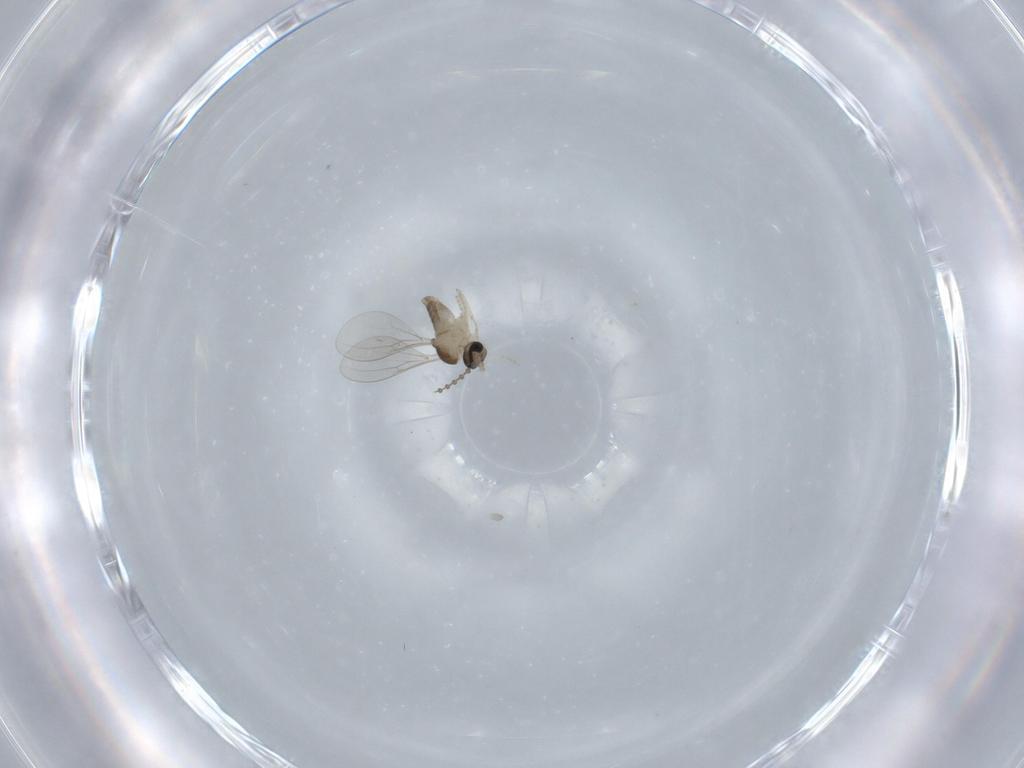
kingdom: Animalia
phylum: Arthropoda
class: Insecta
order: Diptera
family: Cecidomyiidae
